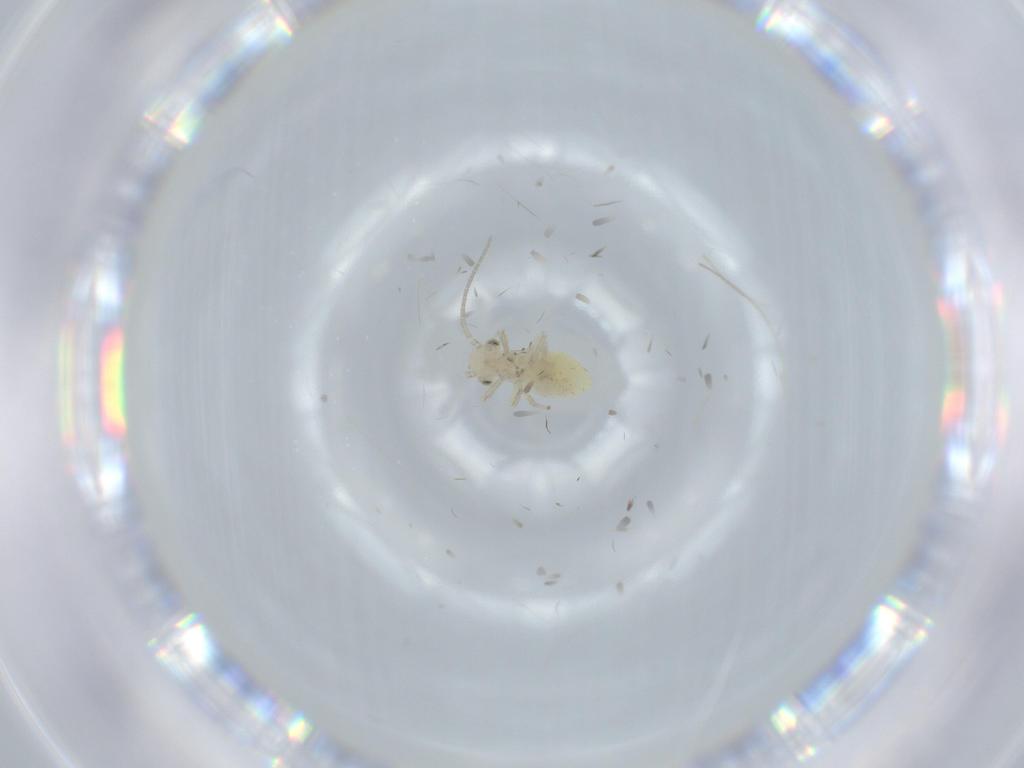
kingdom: Animalia
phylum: Arthropoda
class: Insecta
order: Psocodea
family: Caeciliusidae
